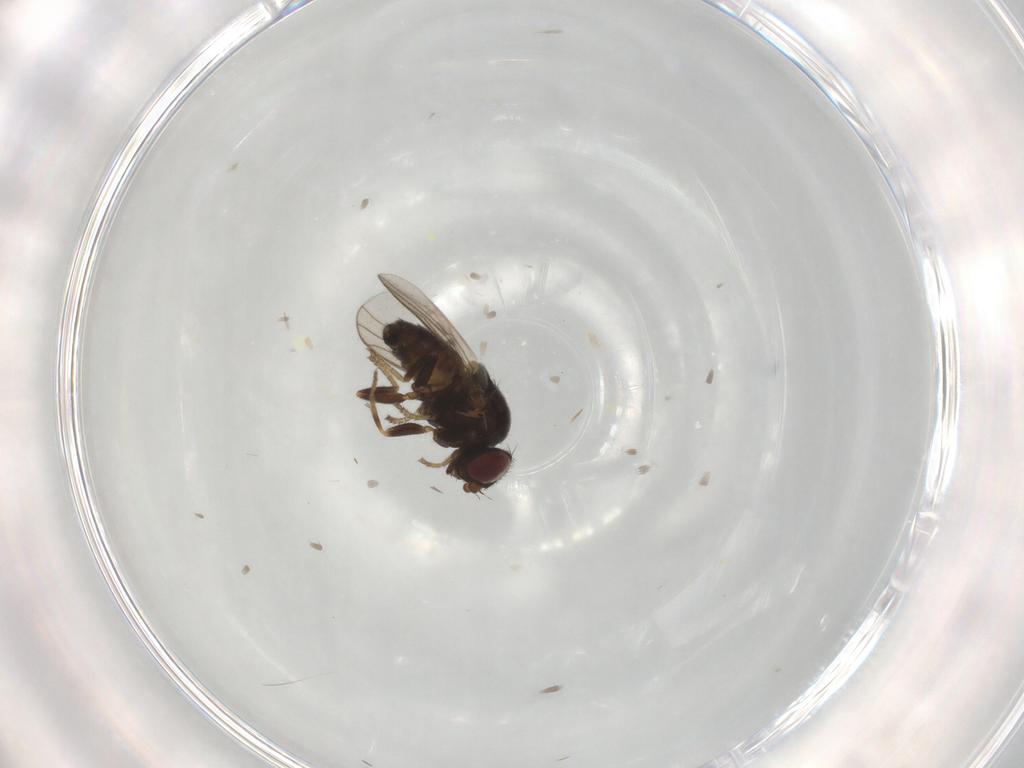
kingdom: Animalia
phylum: Arthropoda
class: Insecta
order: Diptera
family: Chloropidae
